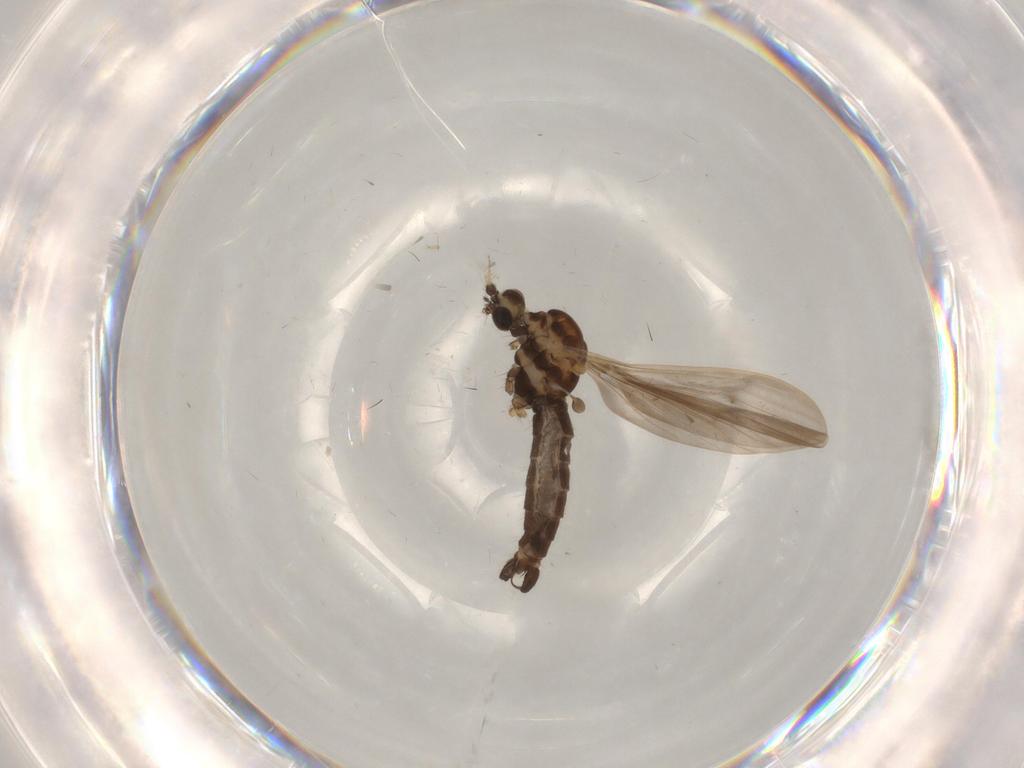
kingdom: Animalia
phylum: Arthropoda
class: Insecta
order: Diptera
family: Limoniidae
